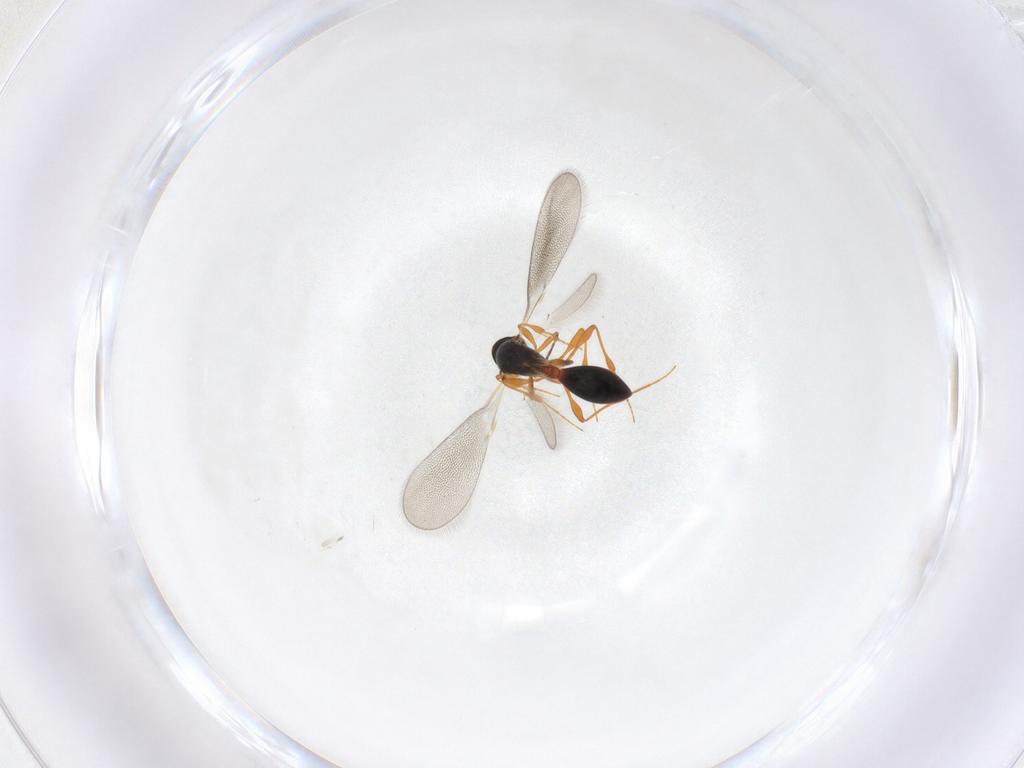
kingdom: Animalia
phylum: Arthropoda
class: Insecta
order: Hymenoptera
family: Platygastridae
